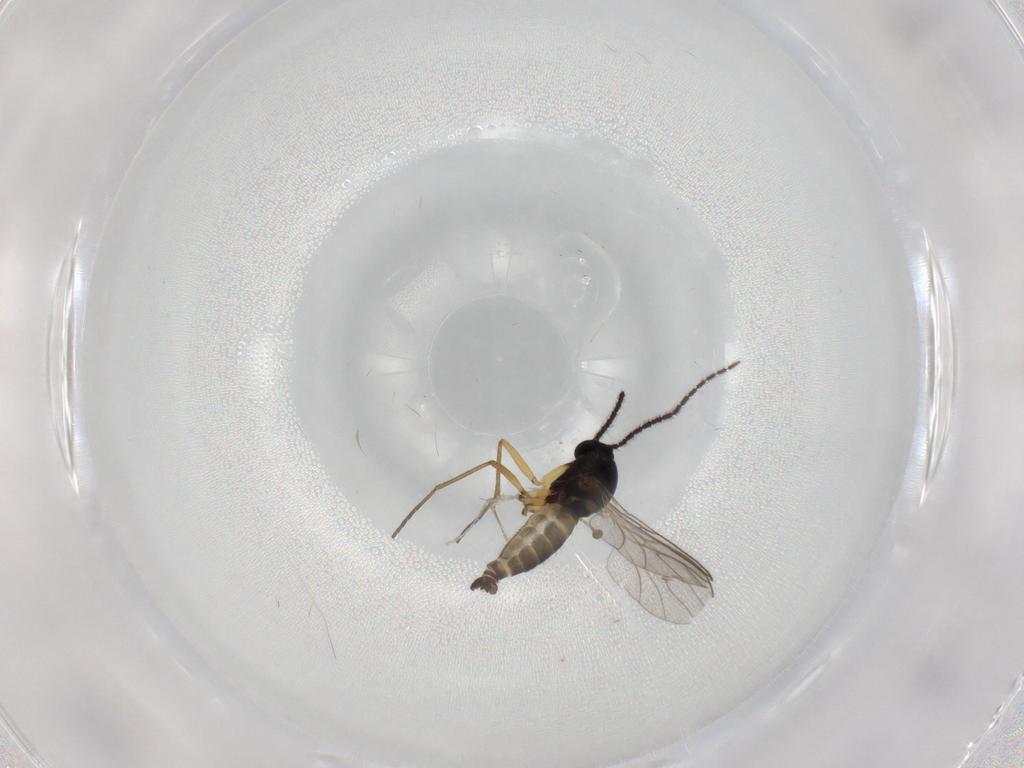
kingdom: Animalia
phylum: Arthropoda
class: Insecta
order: Diptera
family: Sciaridae
